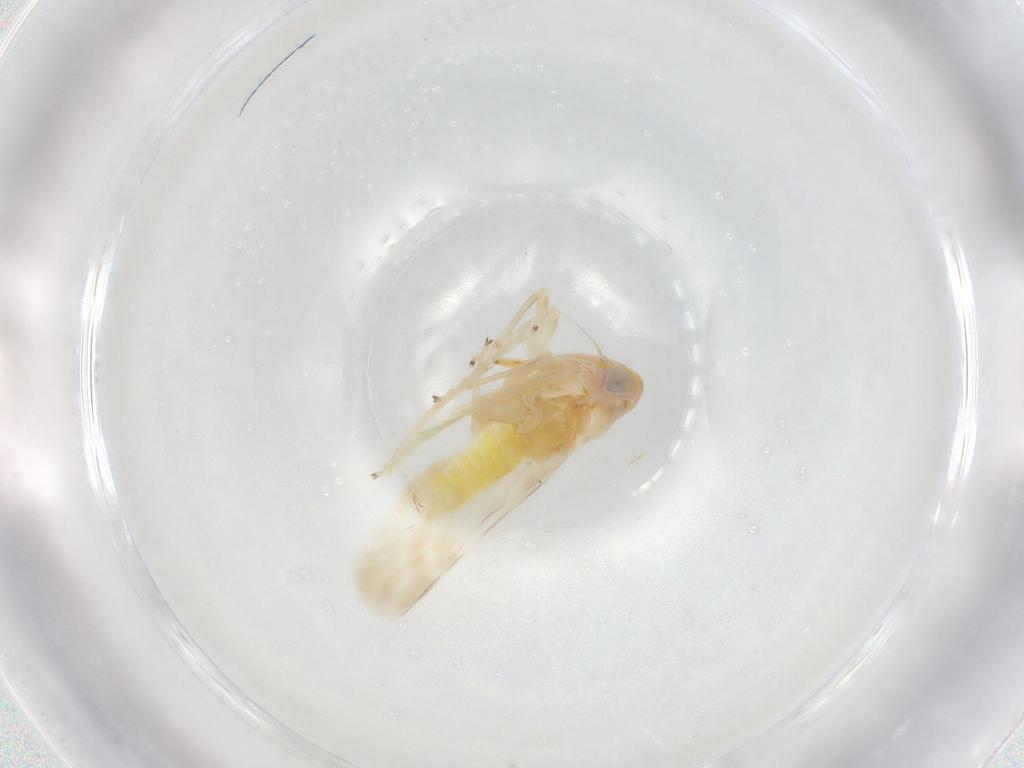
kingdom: Animalia
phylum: Arthropoda
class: Insecta
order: Hemiptera
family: Cicadellidae
